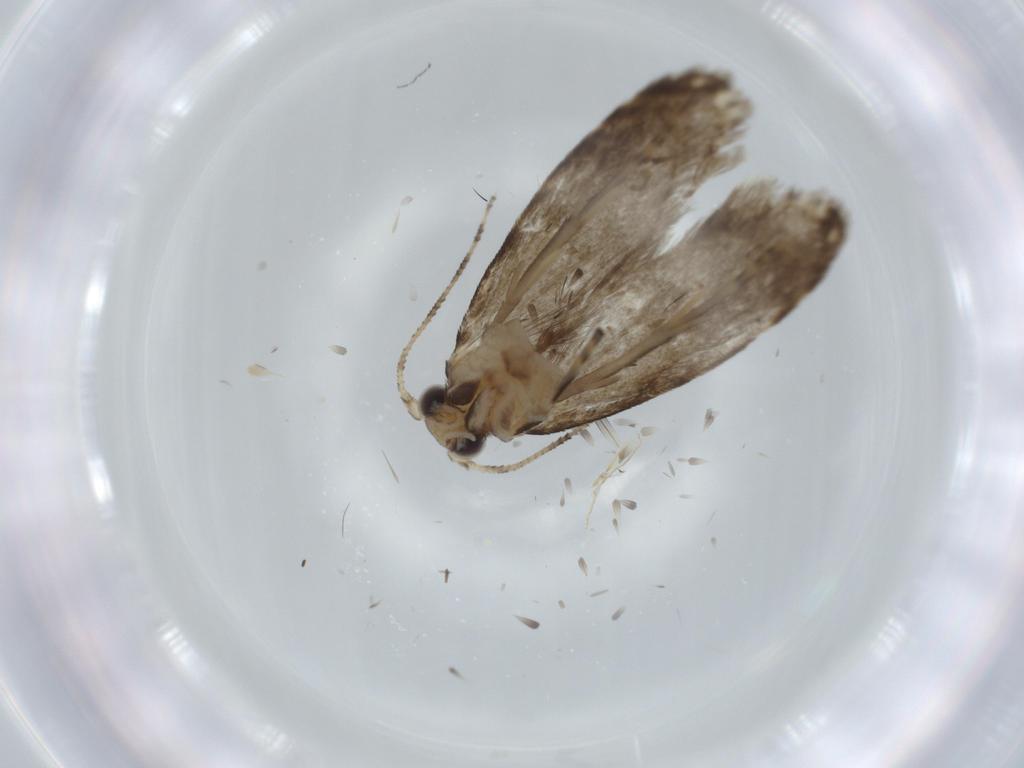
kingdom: Animalia
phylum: Arthropoda
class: Insecta
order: Lepidoptera
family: Tineidae
